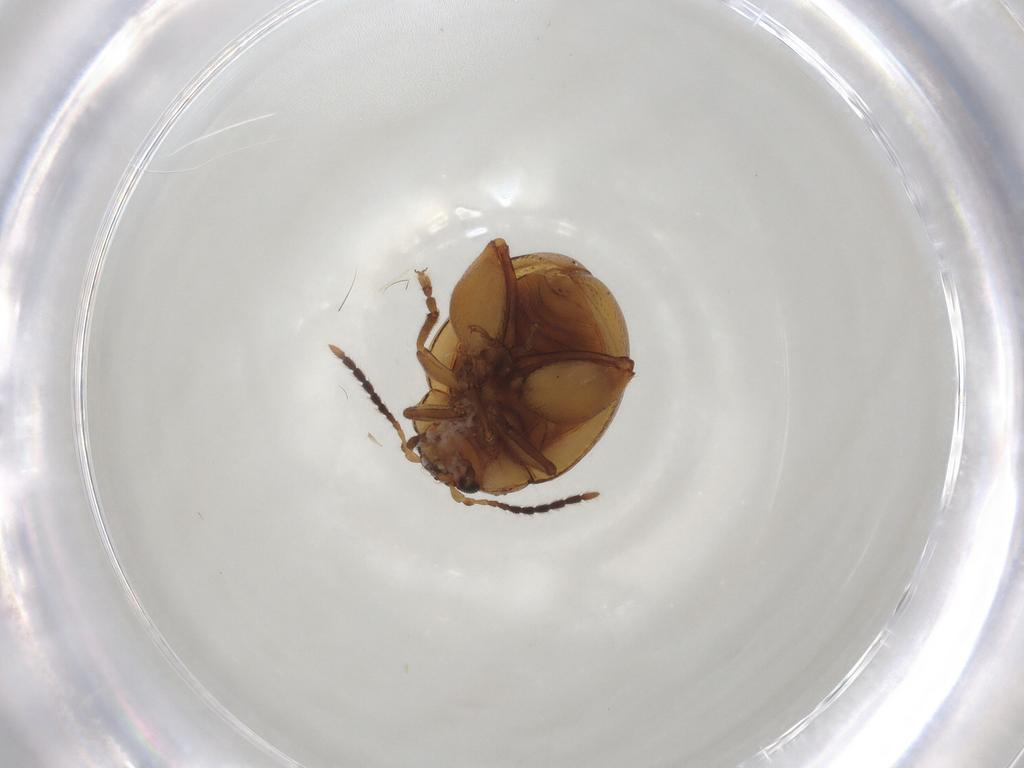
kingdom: Animalia
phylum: Arthropoda
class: Insecta
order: Coleoptera
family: Chrysomelidae
